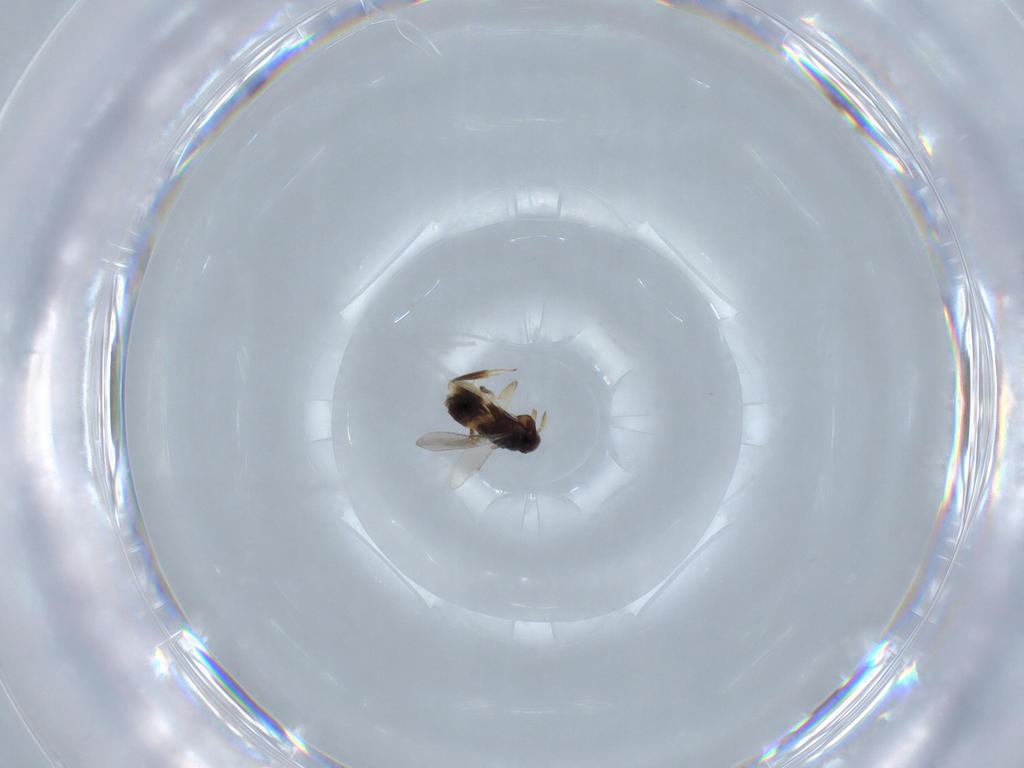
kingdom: Animalia
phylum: Arthropoda
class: Insecta
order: Hymenoptera
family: Aphelinidae
